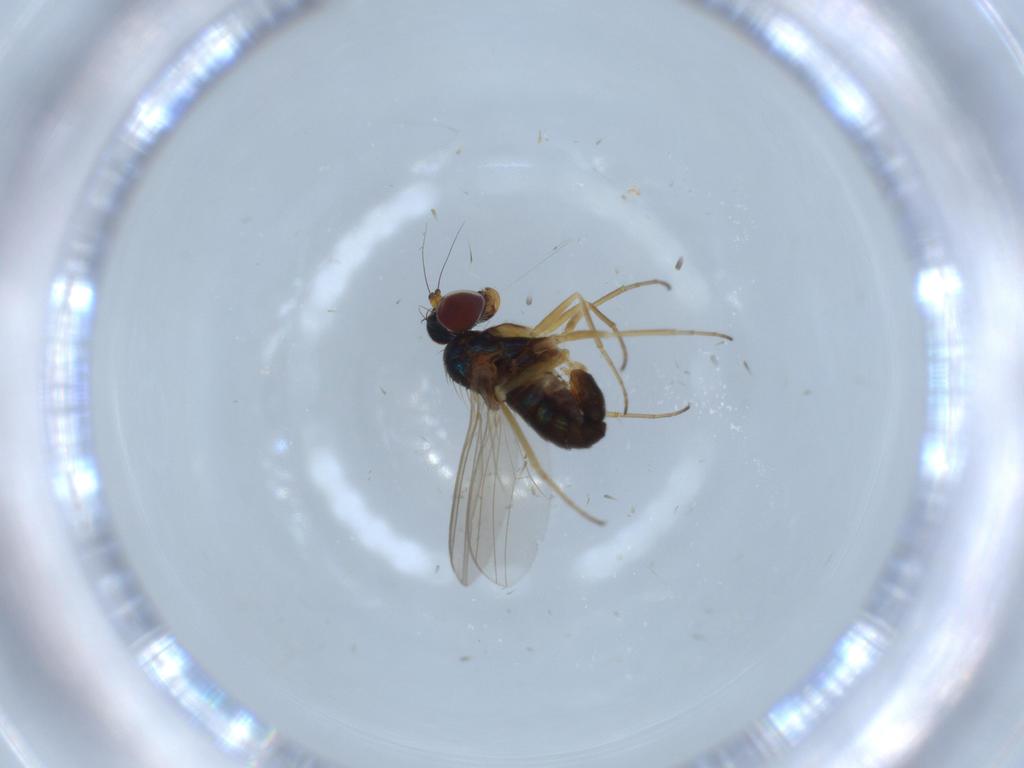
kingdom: Animalia
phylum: Arthropoda
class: Insecta
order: Diptera
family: Dolichopodidae
